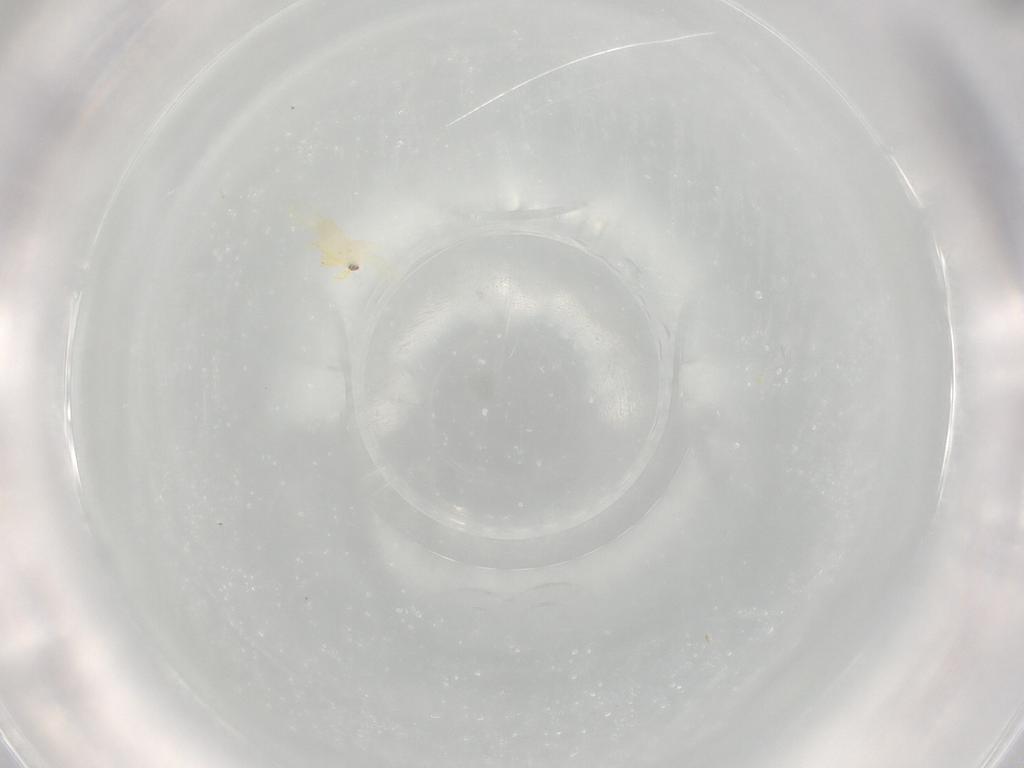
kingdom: Animalia
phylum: Arthropoda
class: Insecta
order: Hemiptera
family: Aleyrodidae
